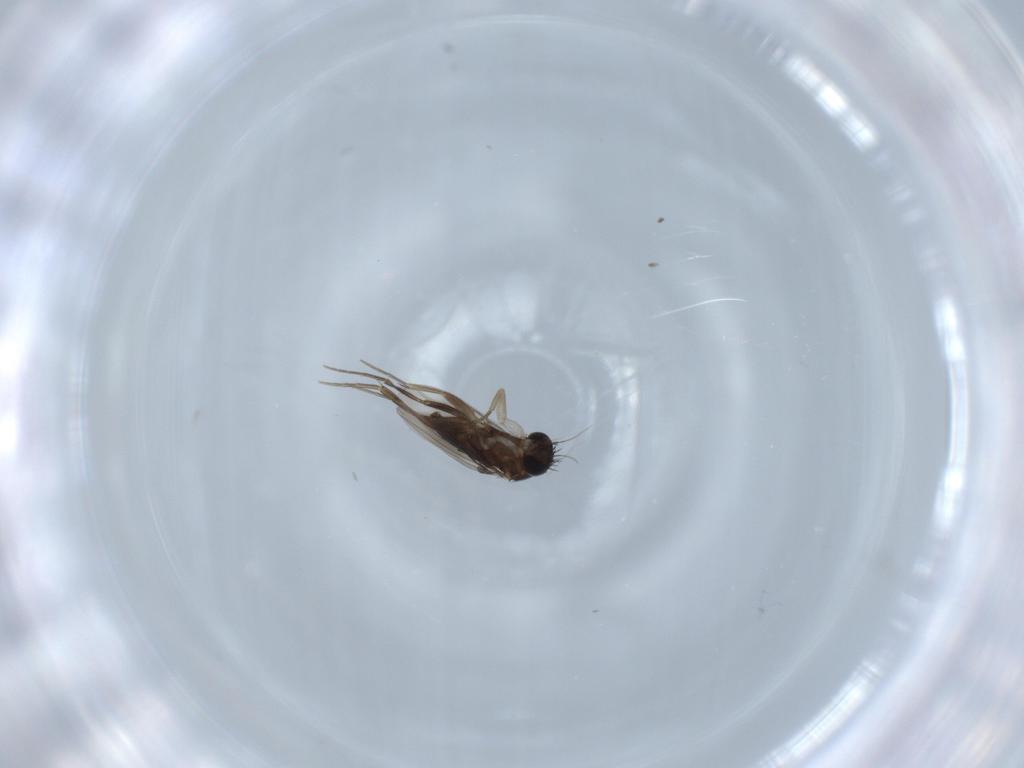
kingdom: Animalia
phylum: Arthropoda
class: Insecta
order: Diptera
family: Phoridae
